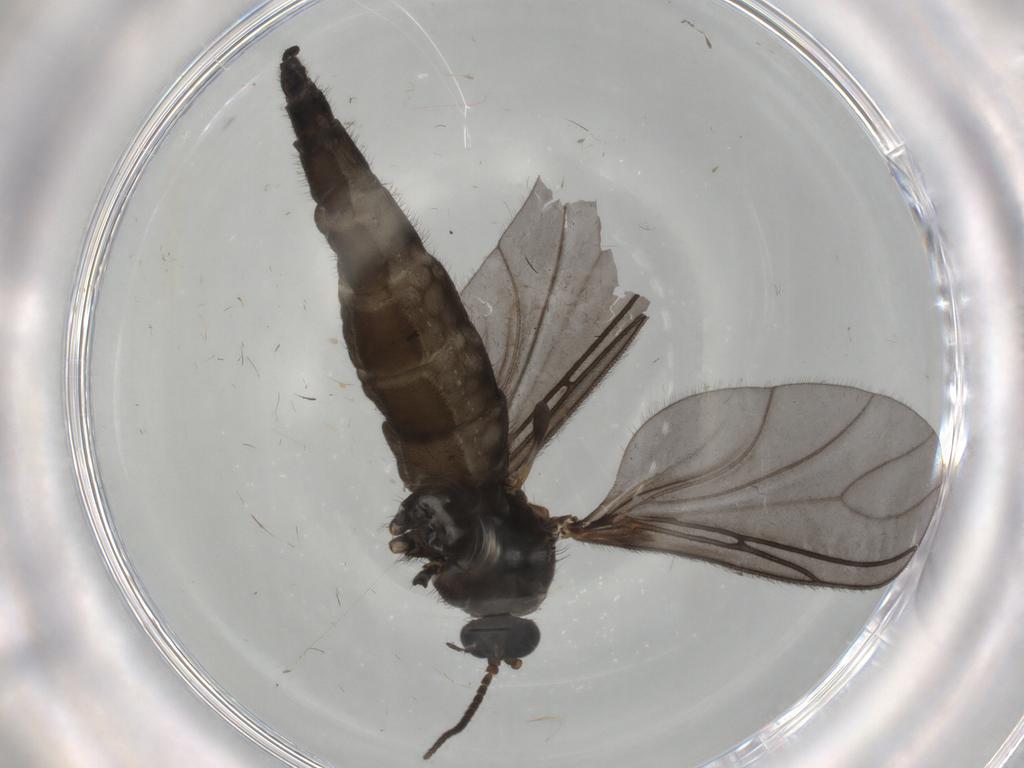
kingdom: Animalia
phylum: Arthropoda
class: Insecta
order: Diptera
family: Sciaridae
